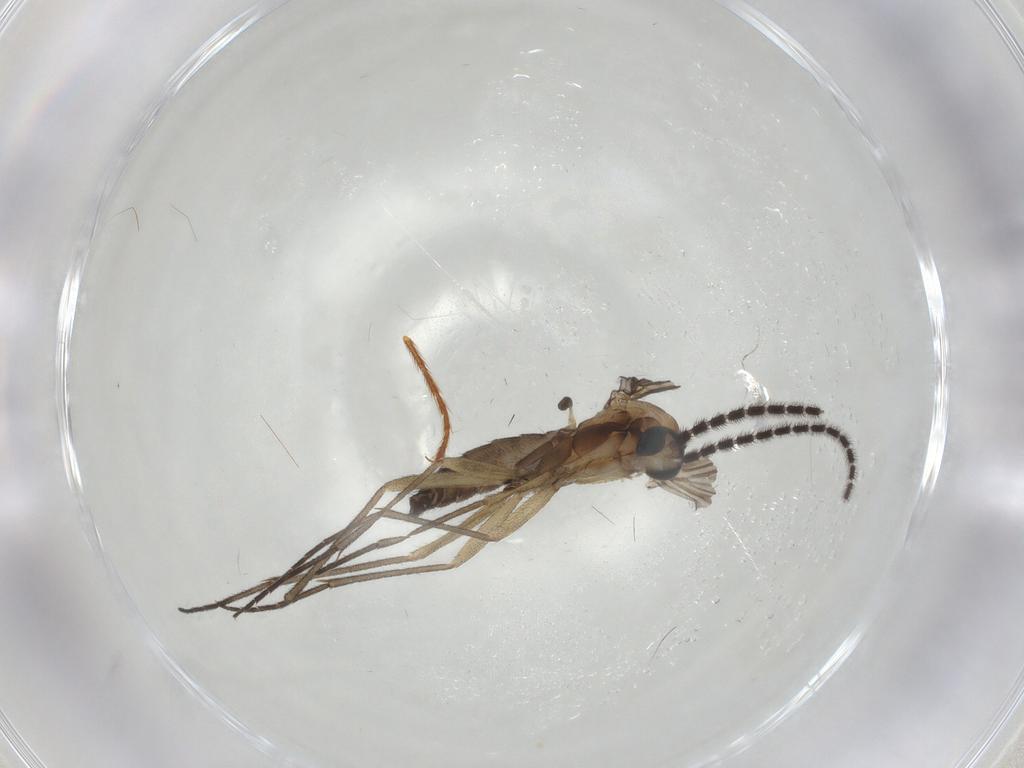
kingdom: Animalia
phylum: Arthropoda
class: Insecta
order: Diptera
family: Sciaridae
